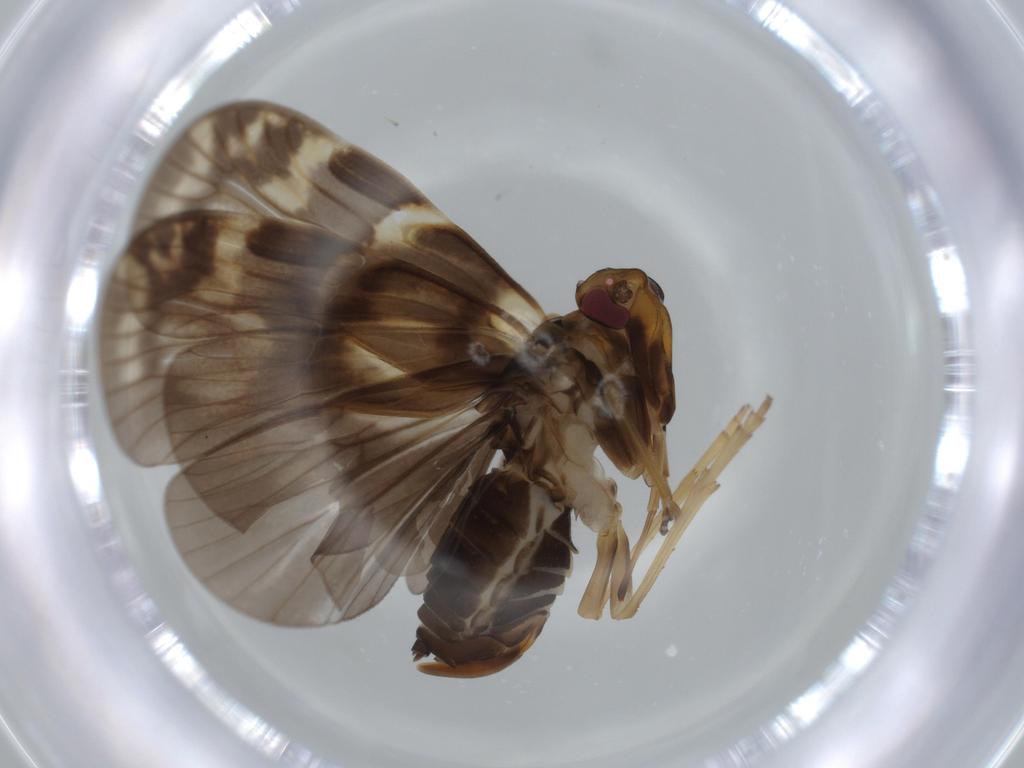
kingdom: Animalia
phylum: Arthropoda
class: Insecta
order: Hemiptera
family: Cixiidae
